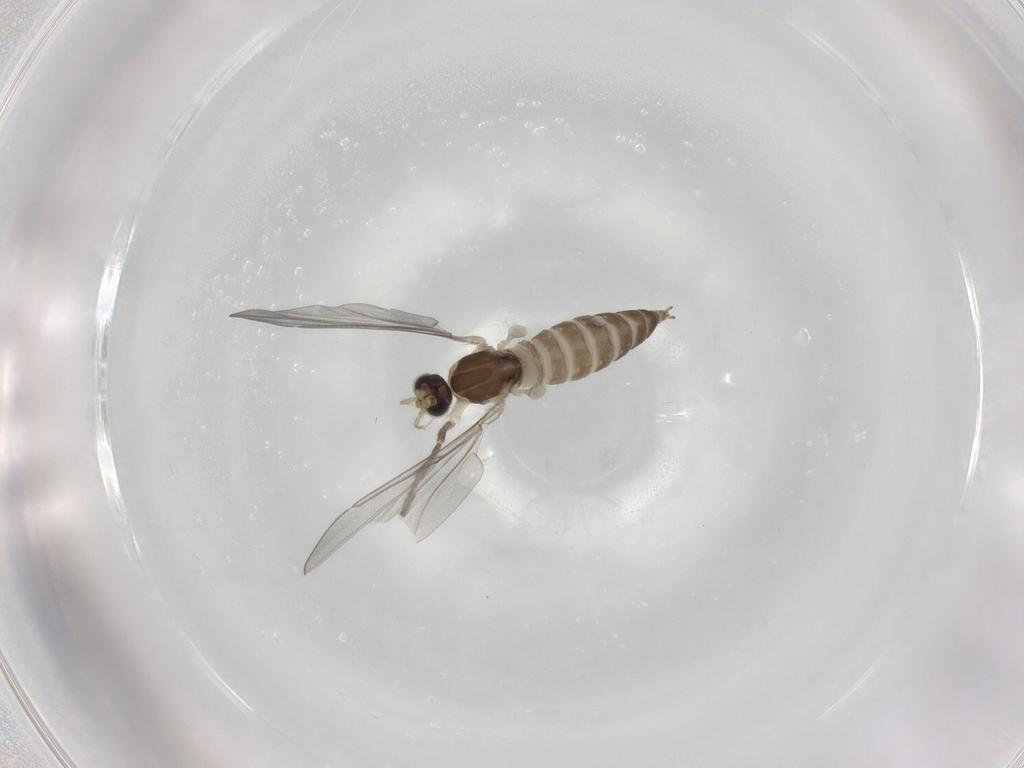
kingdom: Animalia
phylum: Arthropoda
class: Insecta
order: Diptera
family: Cecidomyiidae
